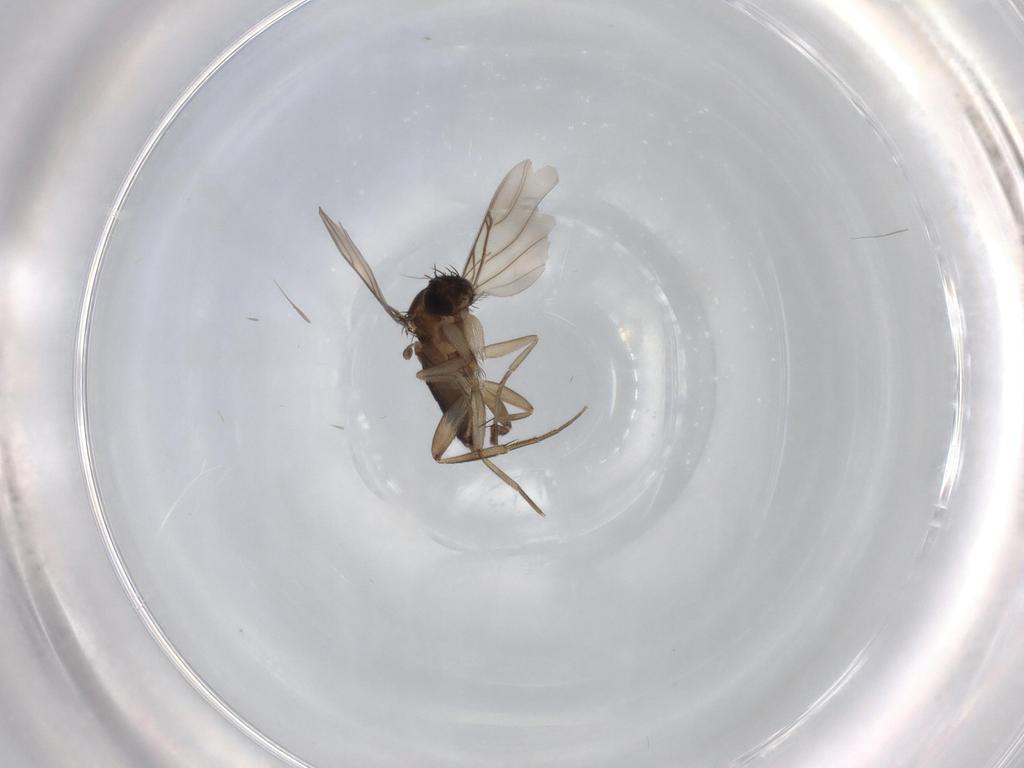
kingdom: Animalia
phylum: Arthropoda
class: Insecta
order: Diptera
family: Phoridae
